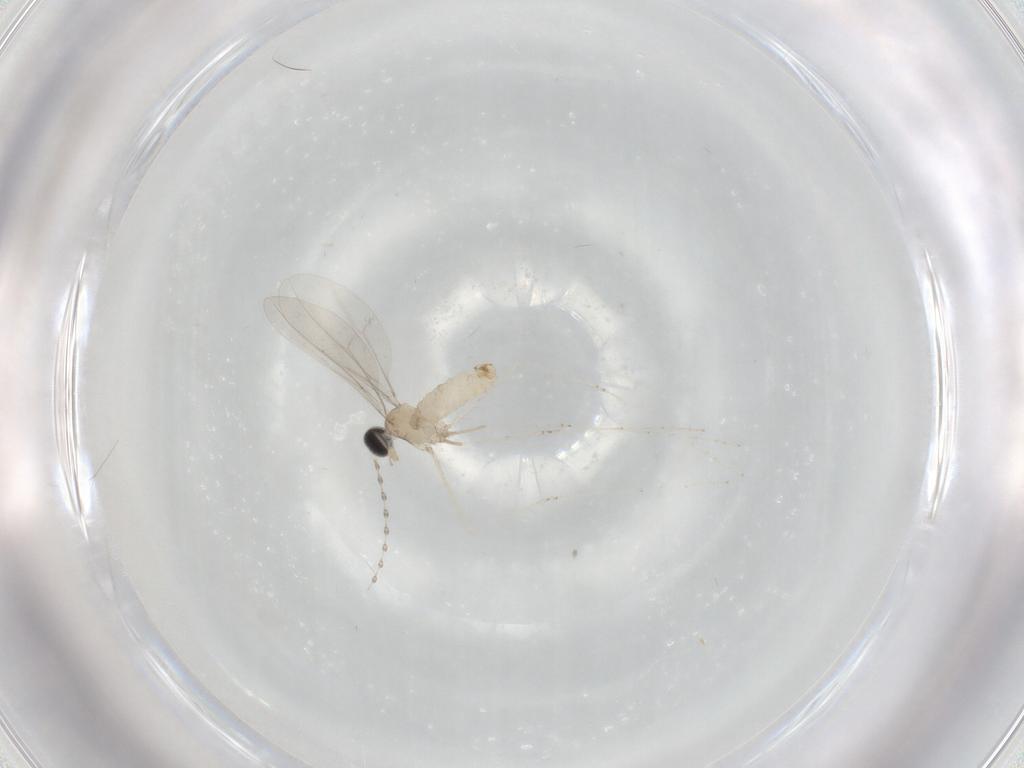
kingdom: Animalia
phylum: Arthropoda
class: Insecta
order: Diptera
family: Cecidomyiidae
